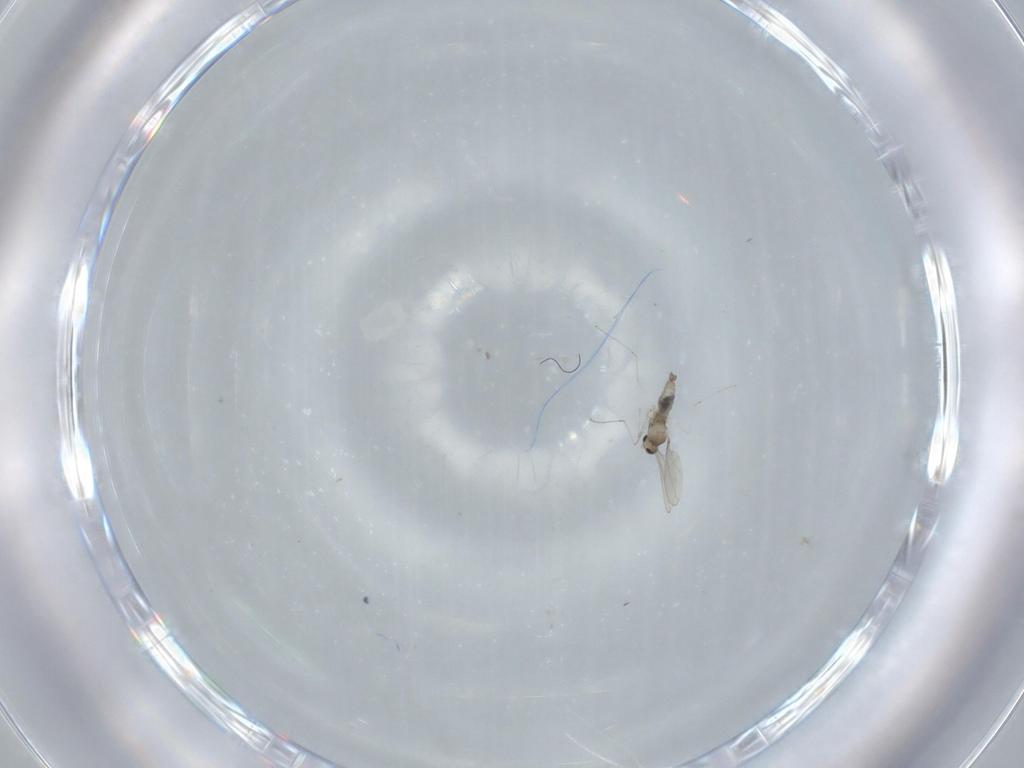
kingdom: Animalia
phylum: Arthropoda
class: Insecta
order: Diptera
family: Cecidomyiidae
